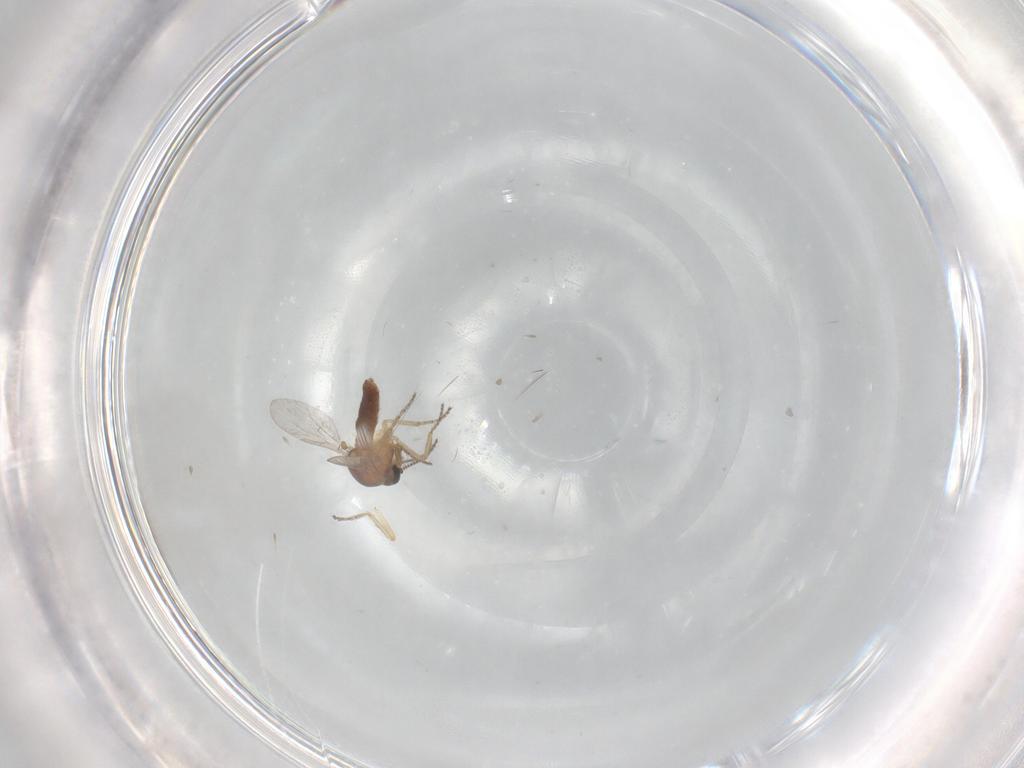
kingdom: Animalia
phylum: Arthropoda
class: Insecta
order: Diptera
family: Ceratopogonidae
